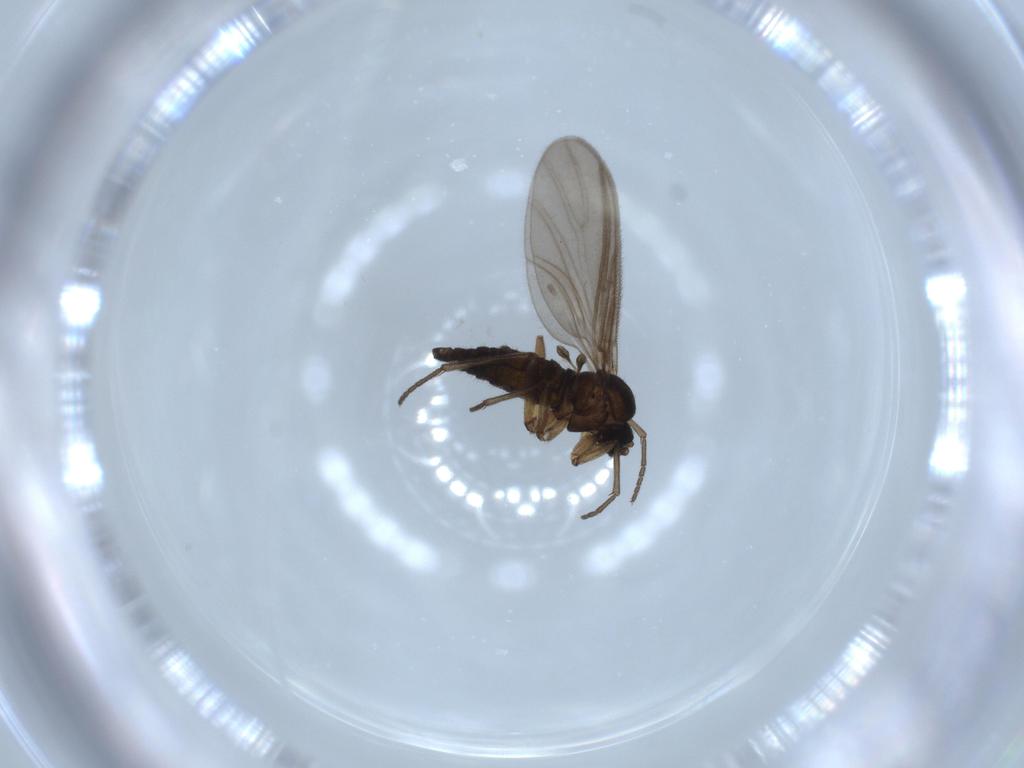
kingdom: Animalia
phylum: Arthropoda
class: Insecta
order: Diptera
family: Sciaridae
